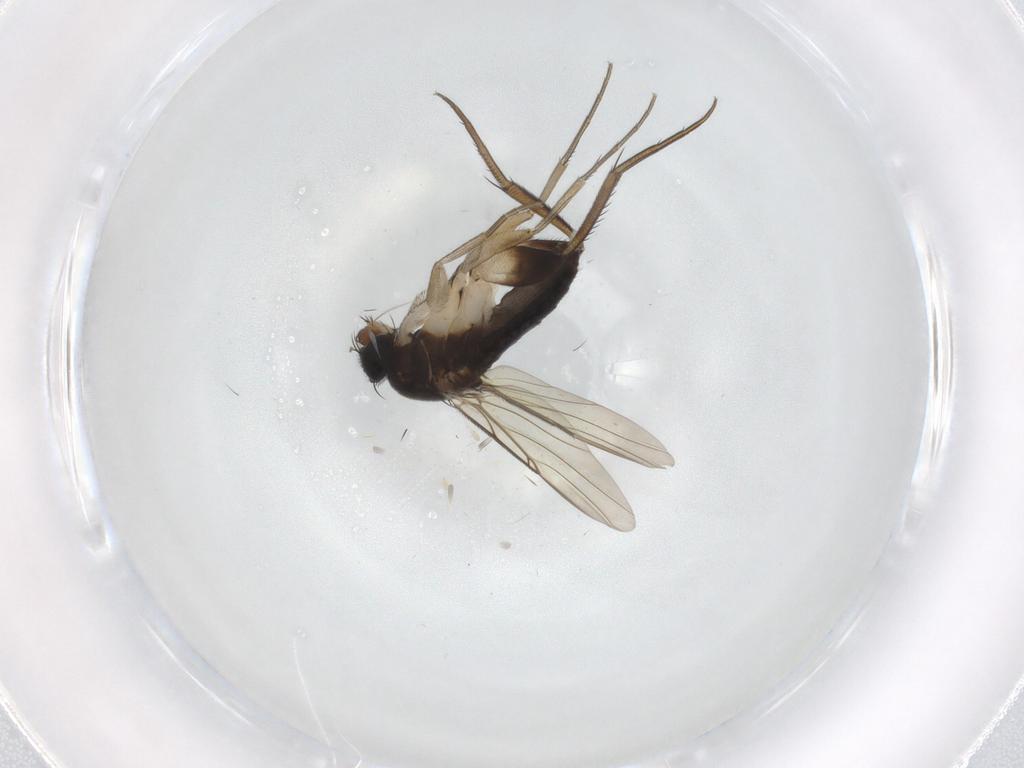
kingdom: Animalia
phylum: Arthropoda
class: Insecta
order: Diptera
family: Phoridae
